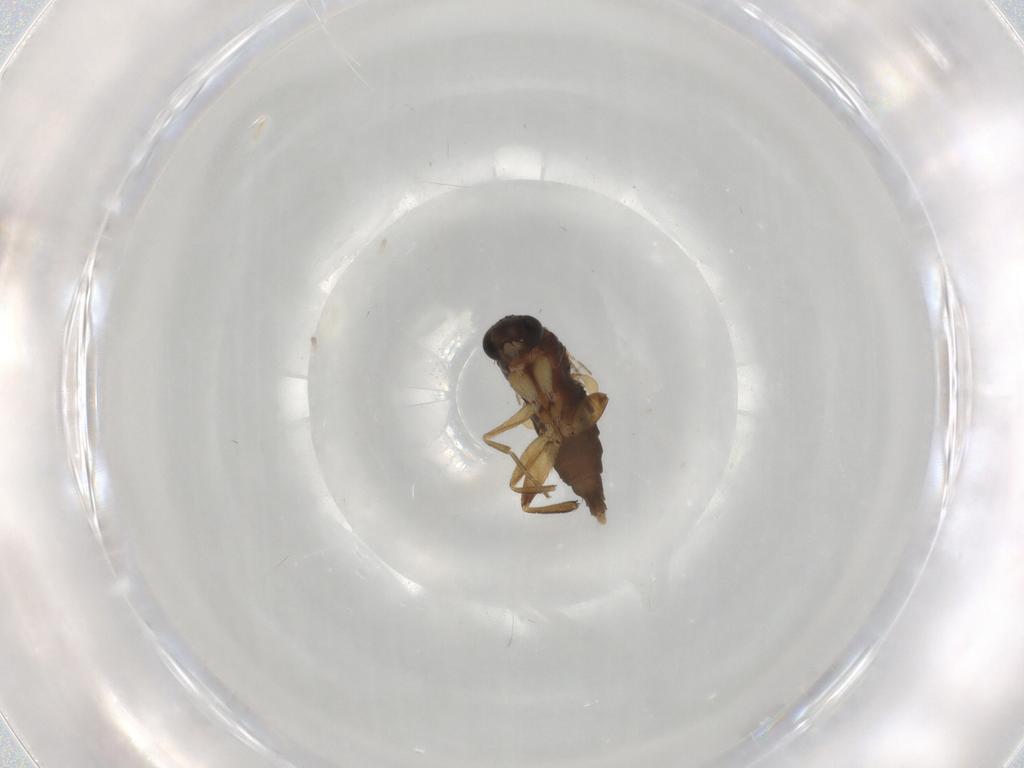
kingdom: Animalia
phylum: Arthropoda
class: Insecta
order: Diptera
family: Phoridae
